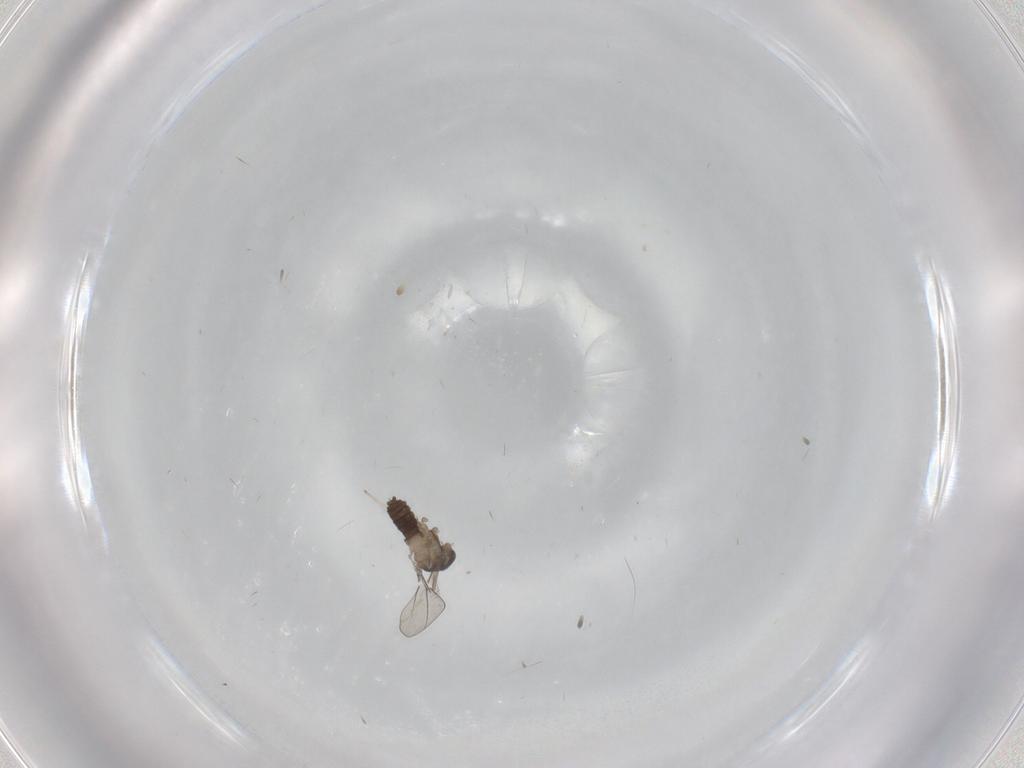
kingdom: Animalia
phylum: Arthropoda
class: Insecta
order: Diptera
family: Cecidomyiidae
